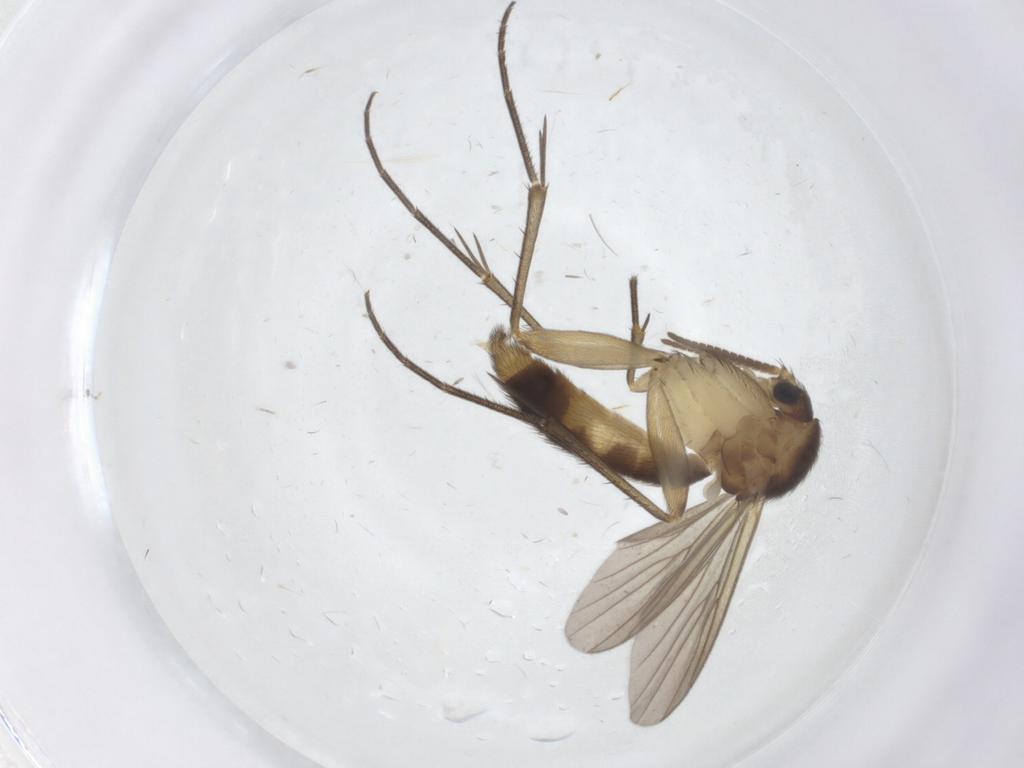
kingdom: Animalia
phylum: Arthropoda
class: Insecta
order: Diptera
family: Mycetophilidae
